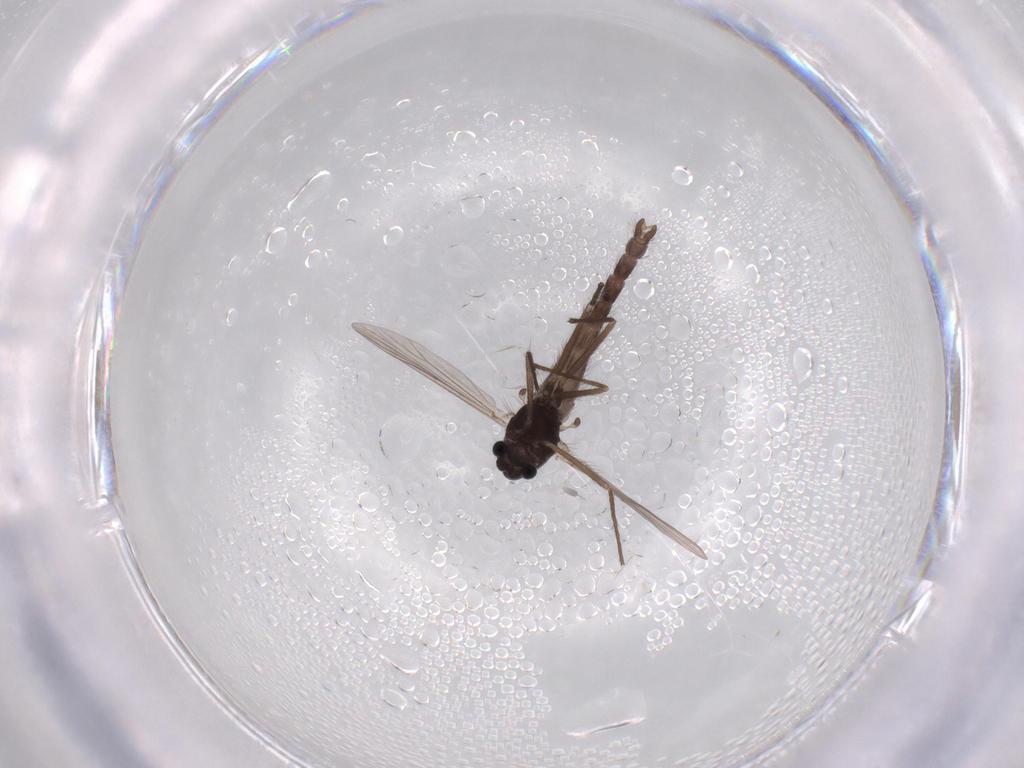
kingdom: Animalia
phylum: Arthropoda
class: Insecta
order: Diptera
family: Chironomidae
